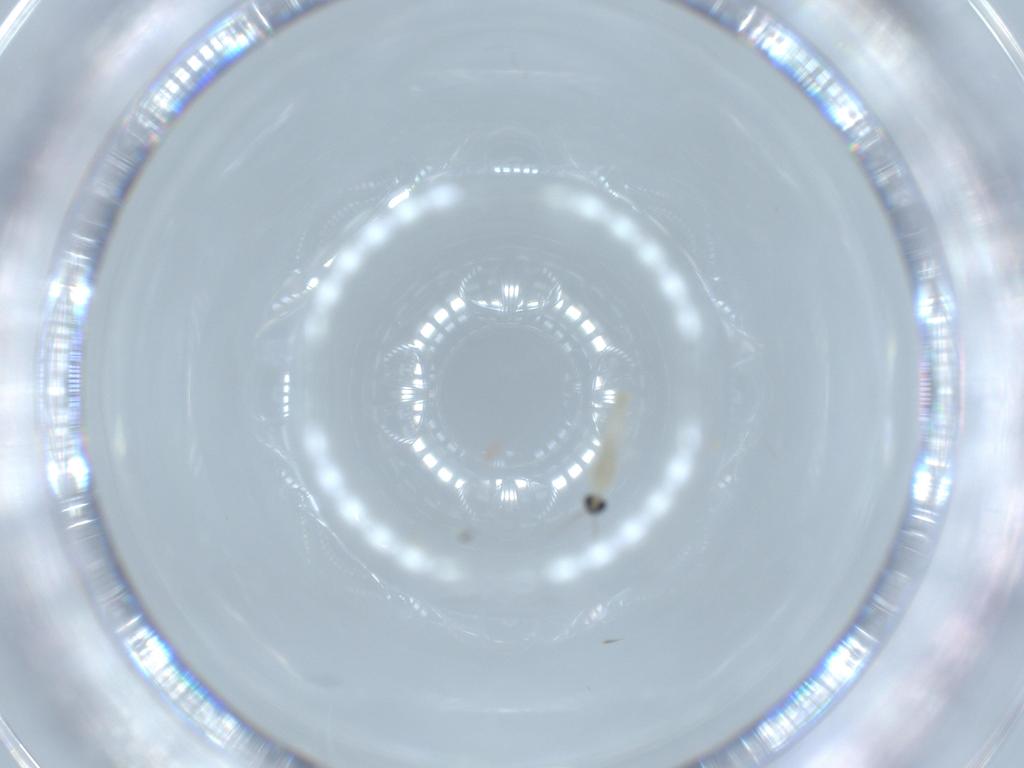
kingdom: Animalia
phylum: Arthropoda
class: Insecta
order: Diptera
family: Cecidomyiidae
